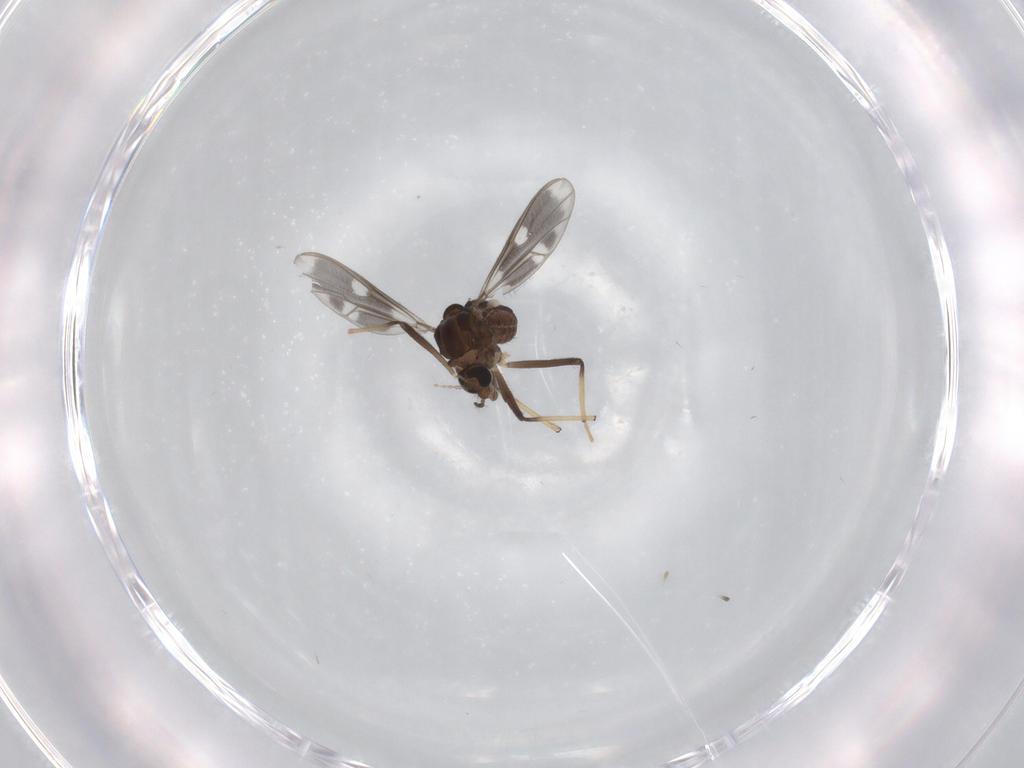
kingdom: Animalia
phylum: Arthropoda
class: Insecta
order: Diptera
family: Chironomidae
